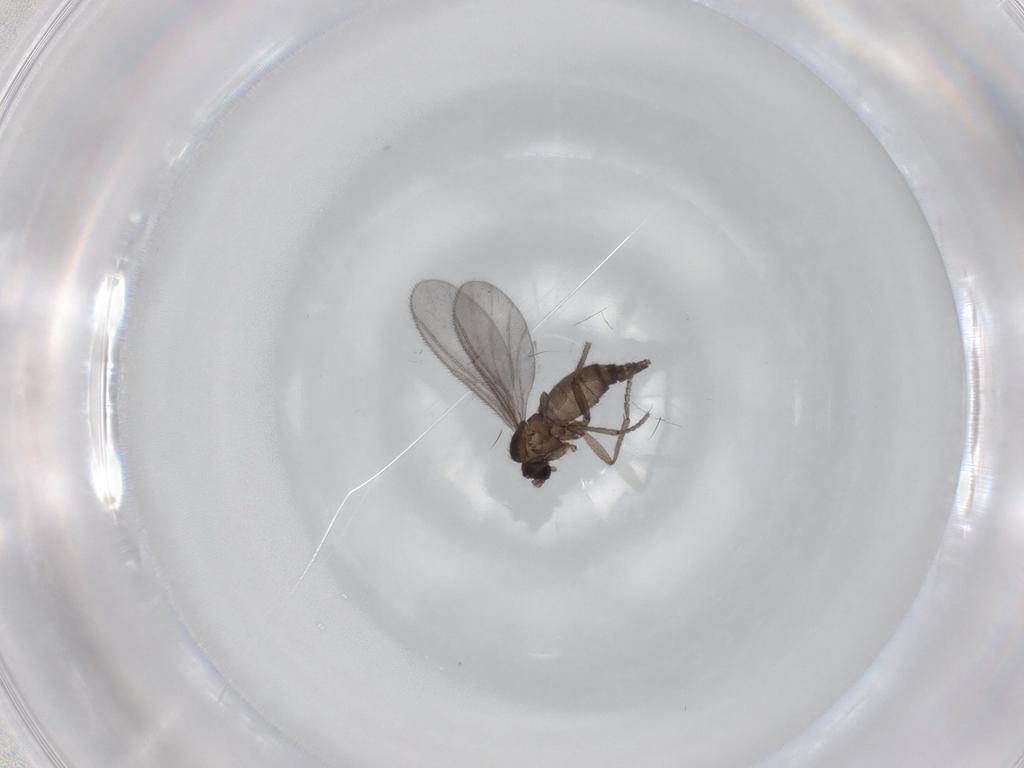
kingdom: Animalia
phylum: Arthropoda
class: Insecta
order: Diptera
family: Sciaridae
